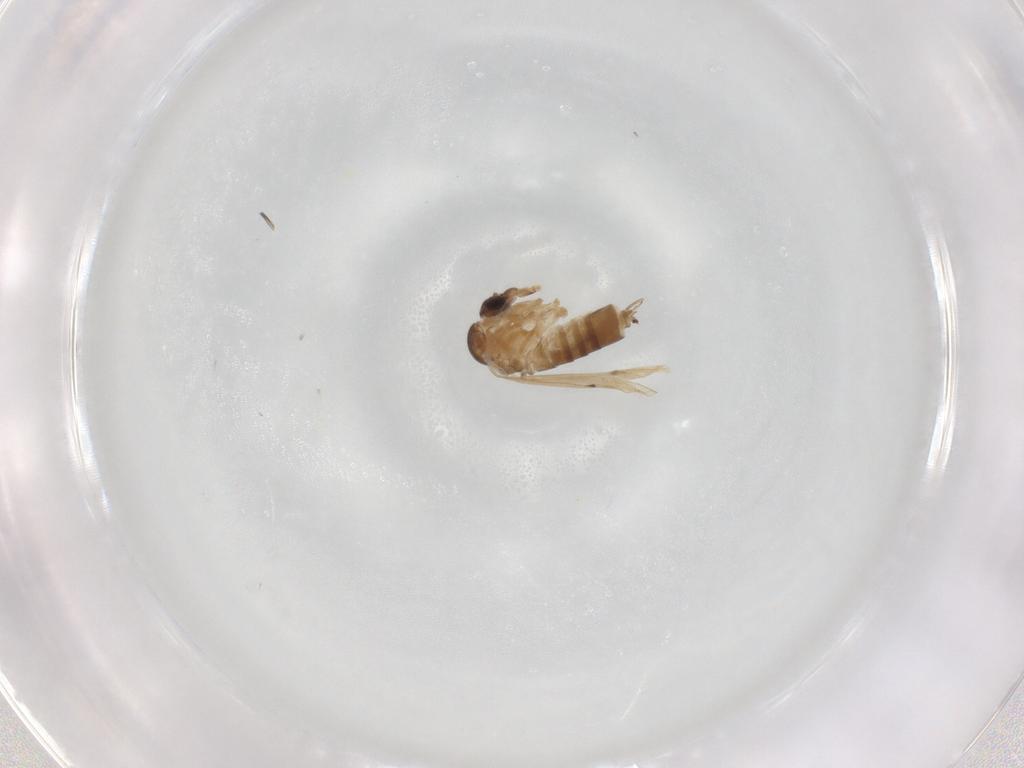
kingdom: Animalia
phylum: Arthropoda
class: Insecta
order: Diptera
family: Psychodidae
